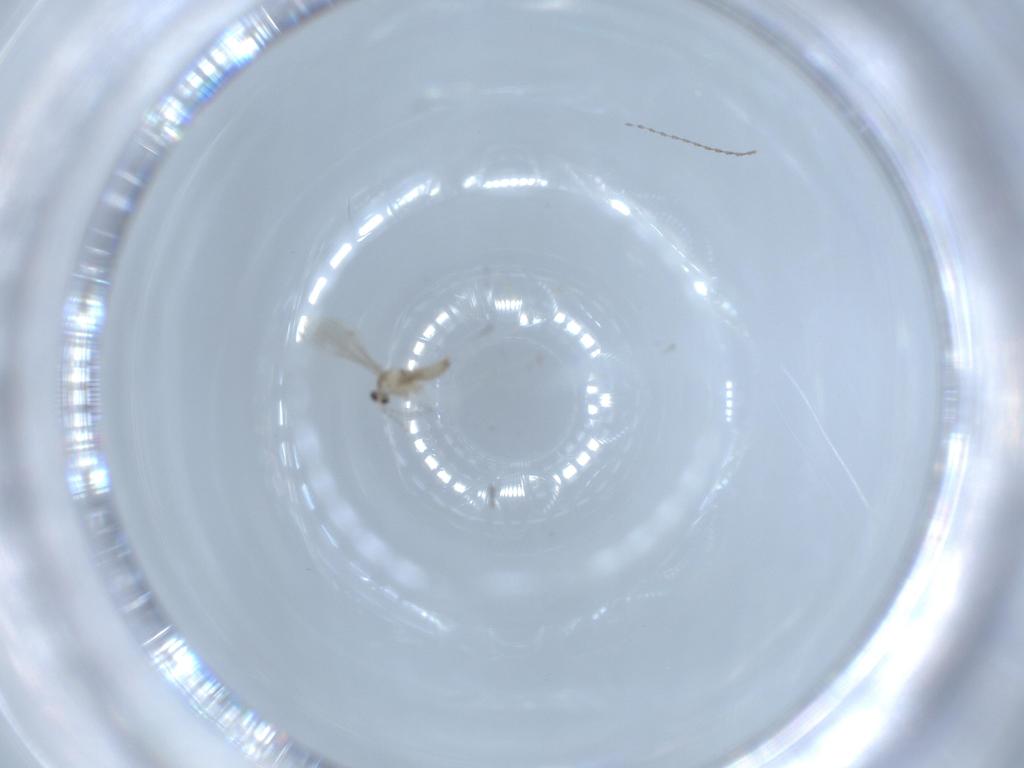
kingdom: Animalia
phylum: Arthropoda
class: Insecta
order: Diptera
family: Cecidomyiidae
